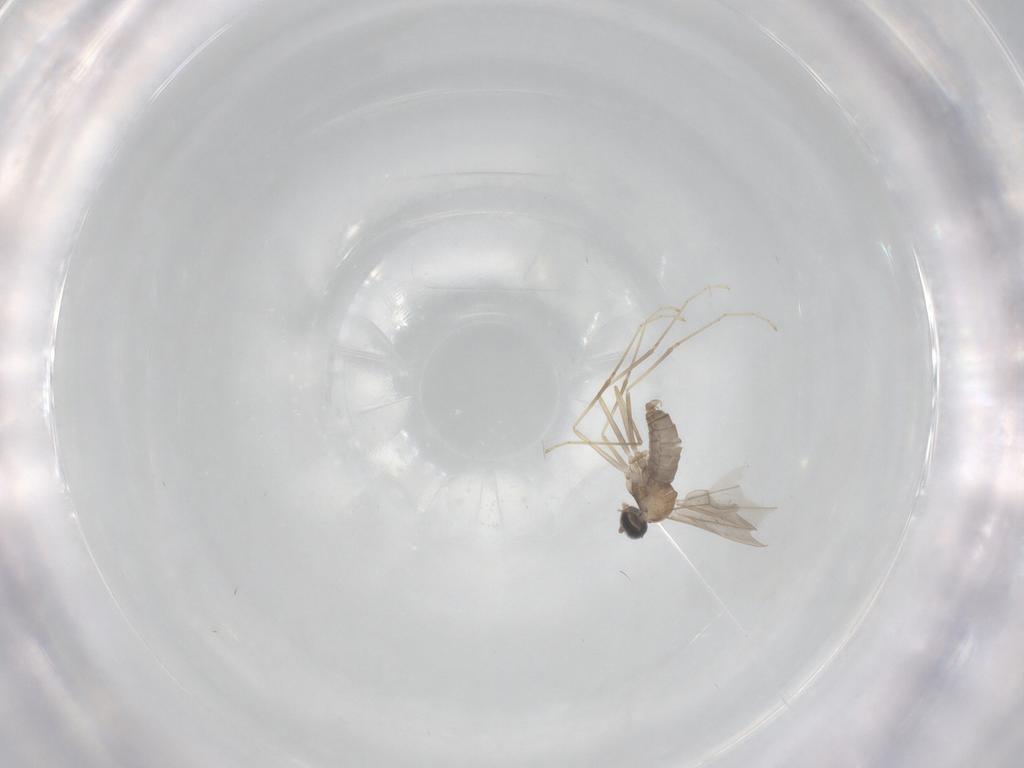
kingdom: Animalia
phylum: Arthropoda
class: Insecta
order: Diptera
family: Cecidomyiidae
